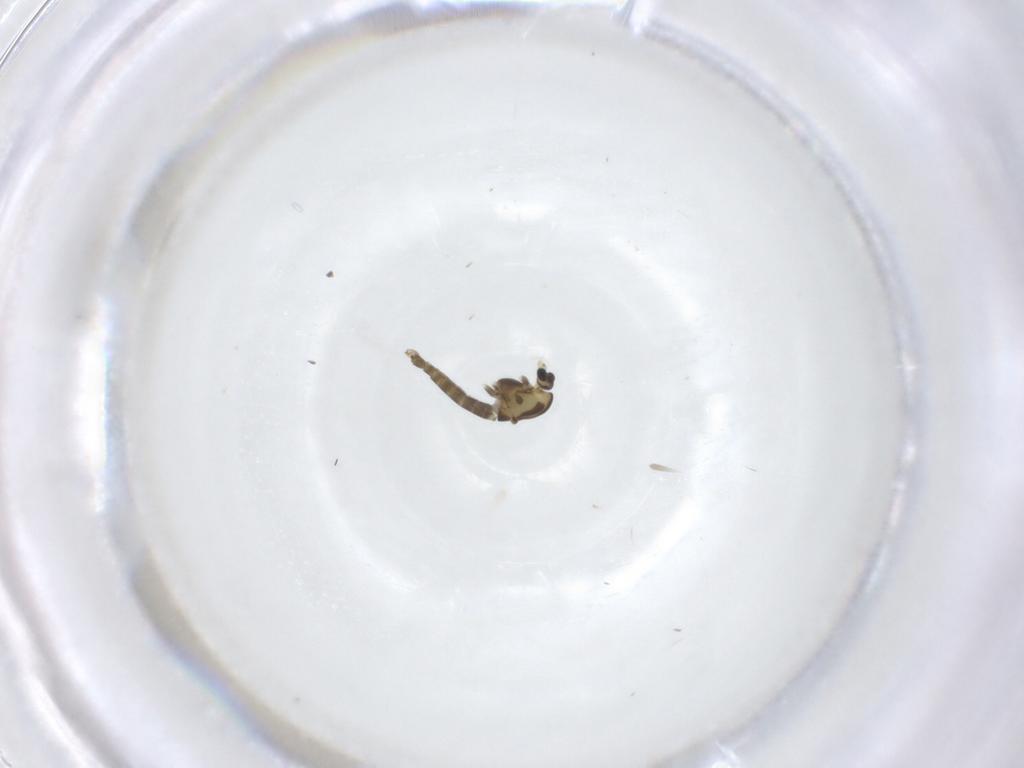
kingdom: Animalia
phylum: Arthropoda
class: Insecta
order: Diptera
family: Chironomidae
